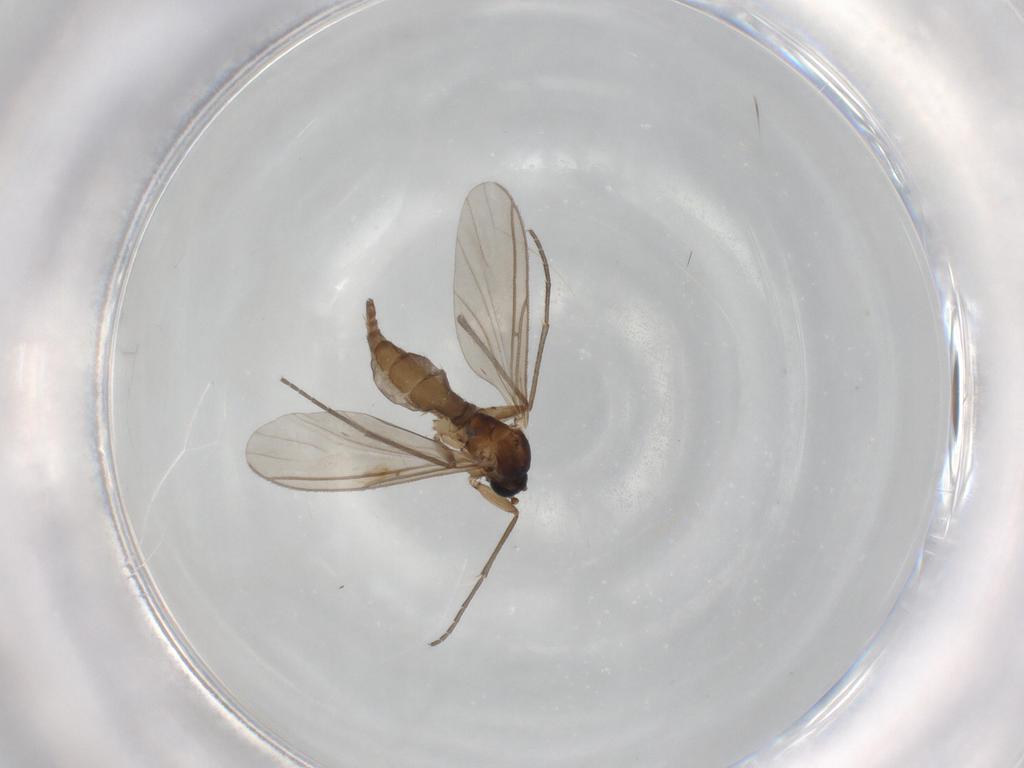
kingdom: Animalia
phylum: Arthropoda
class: Insecta
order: Diptera
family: Sciaridae
